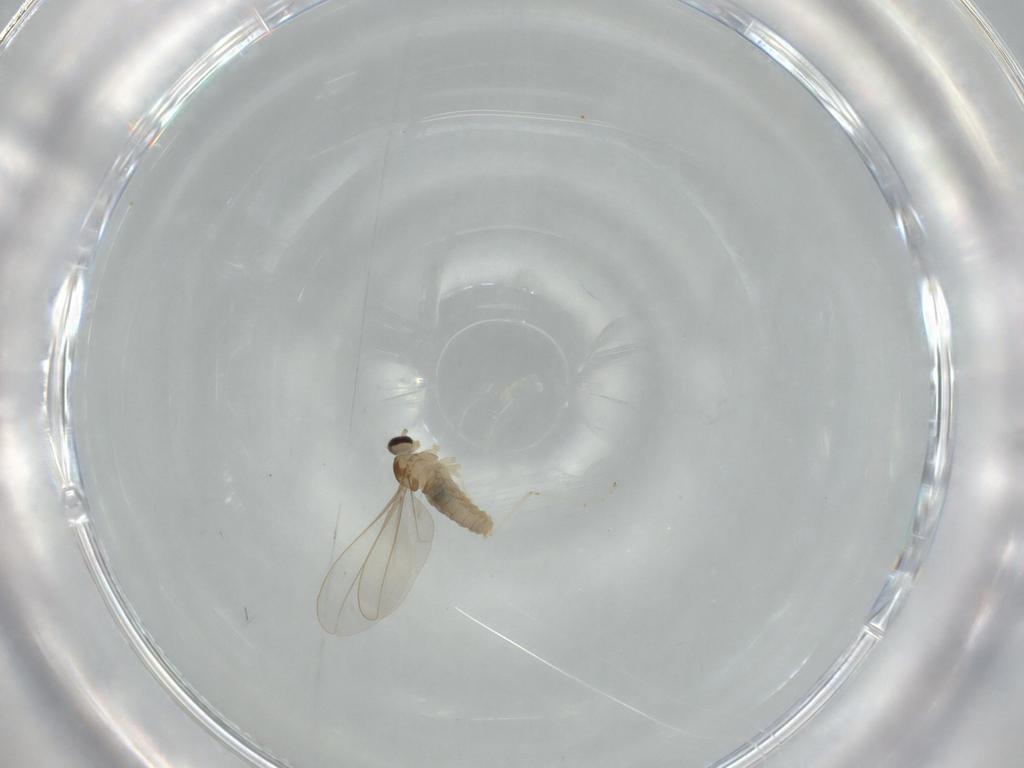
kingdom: Animalia
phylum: Arthropoda
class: Insecta
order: Diptera
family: Cecidomyiidae
